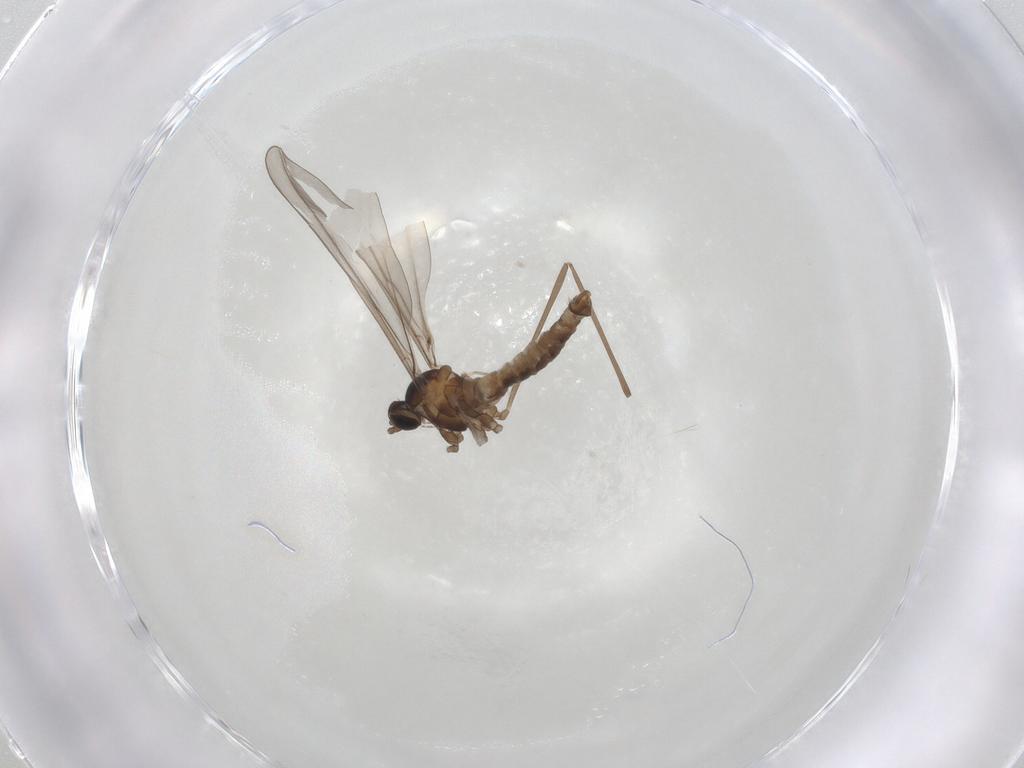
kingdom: Animalia
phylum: Arthropoda
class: Insecta
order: Diptera
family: Cecidomyiidae
